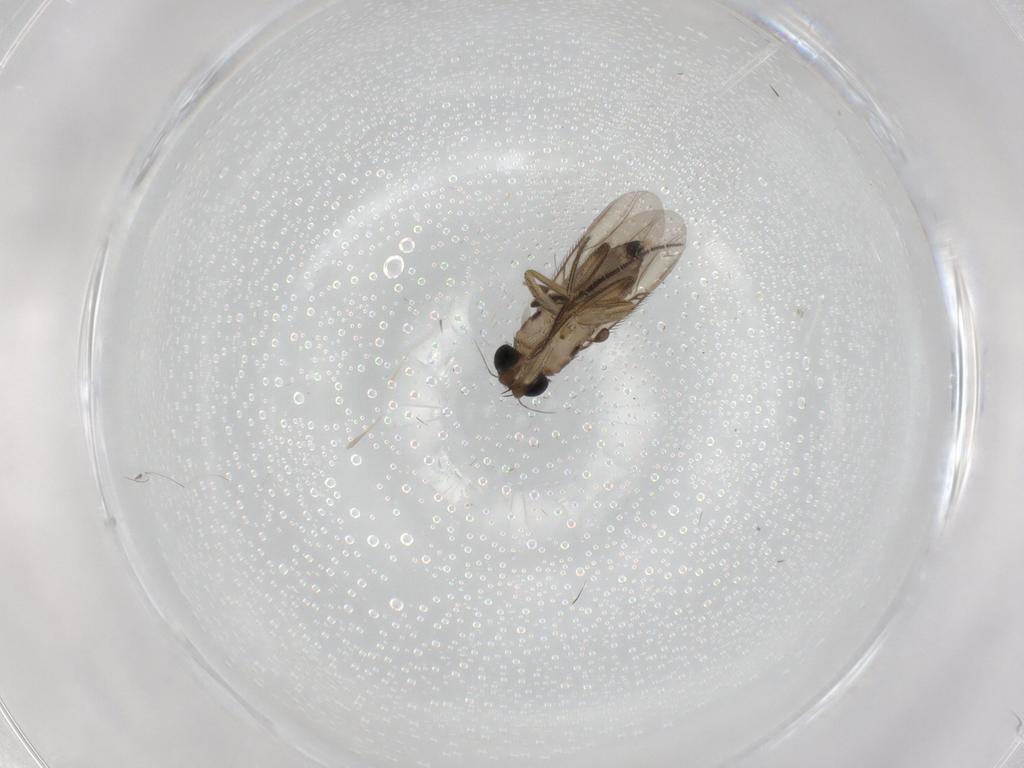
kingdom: Animalia
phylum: Arthropoda
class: Insecta
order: Diptera
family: Phoridae
